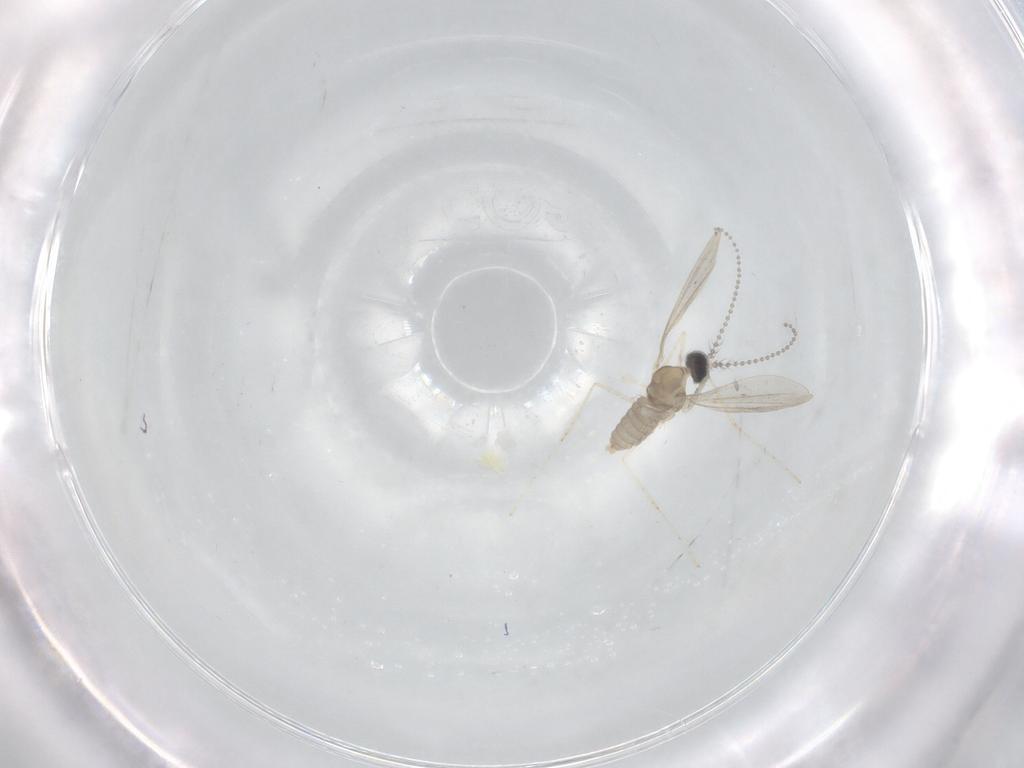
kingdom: Animalia
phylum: Arthropoda
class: Insecta
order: Diptera
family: Cecidomyiidae
